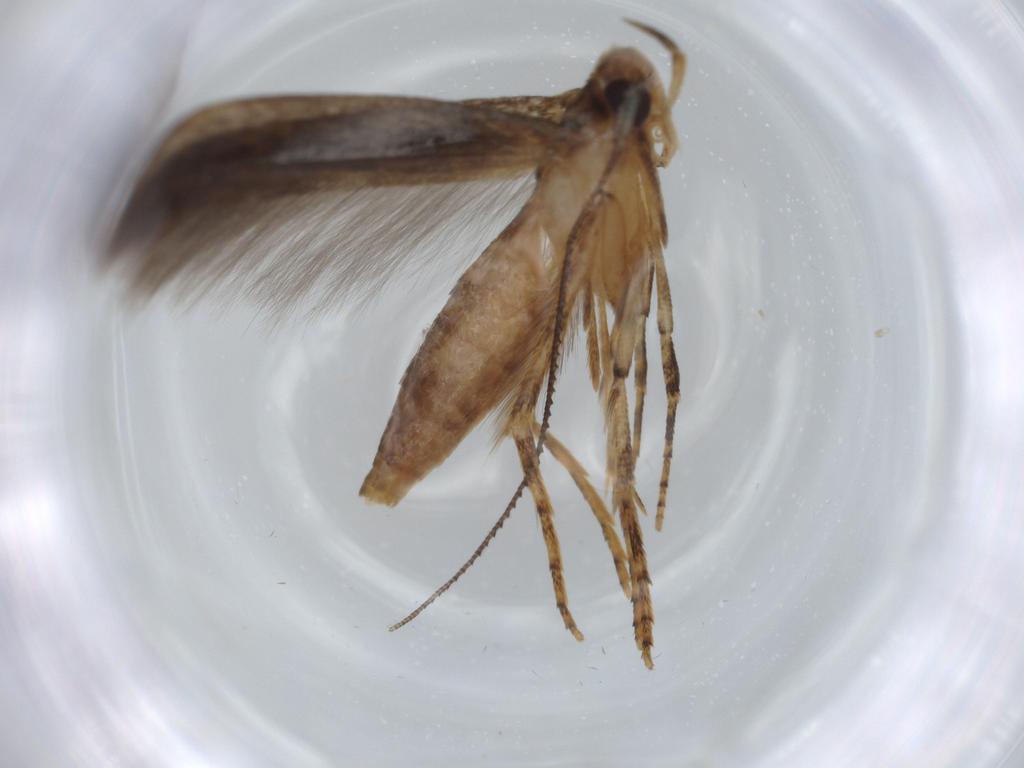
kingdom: Animalia
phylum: Arthropoda
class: Insecta
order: Lepidoptera
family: Heliodinidae
